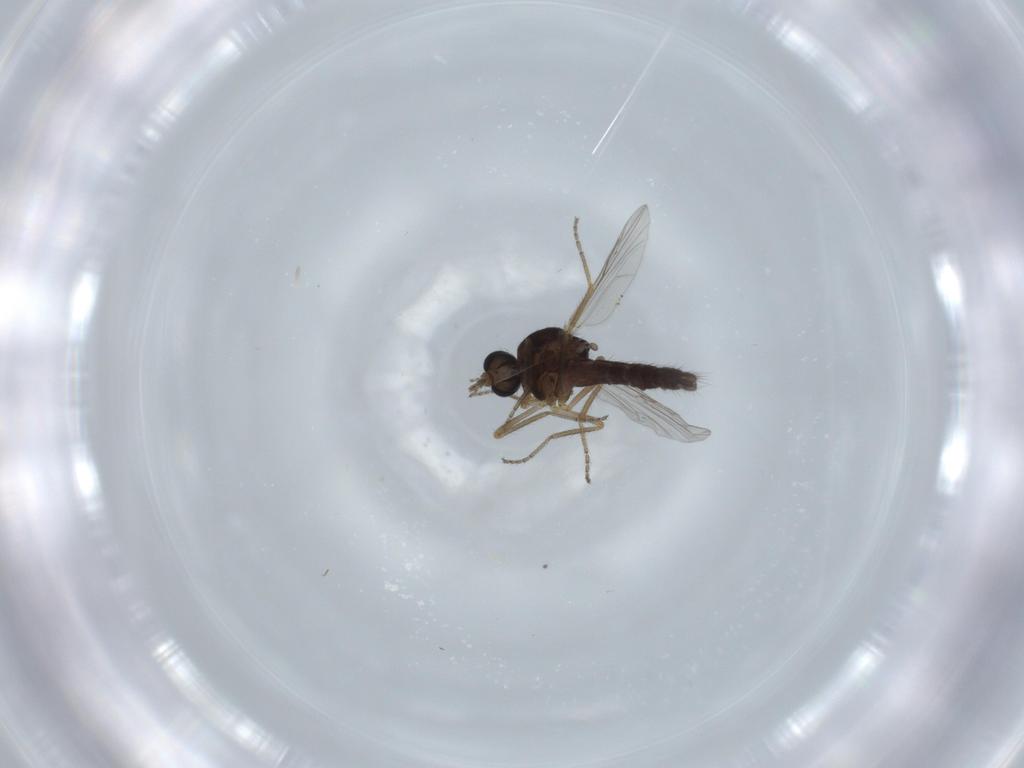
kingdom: Animalia
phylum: Arthropoda
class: Insecta
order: Diptera
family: Ceratopogonidae
